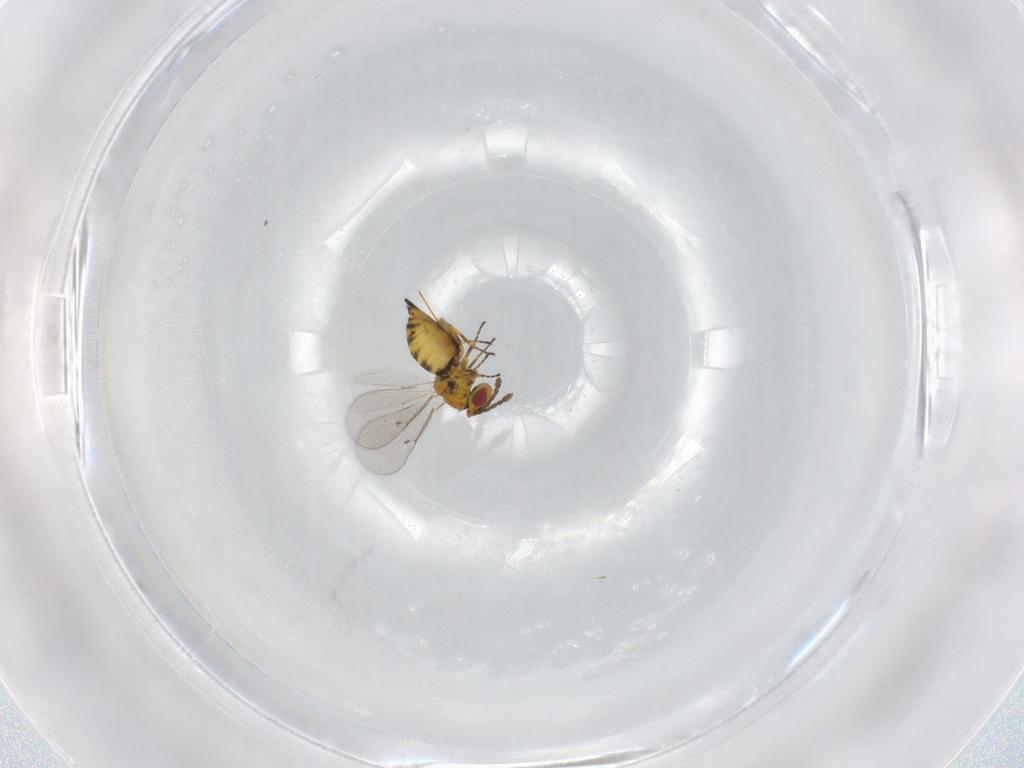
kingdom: Animalia
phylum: Arthropoda
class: Insecta
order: Hymenoptera
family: Eulophidae
